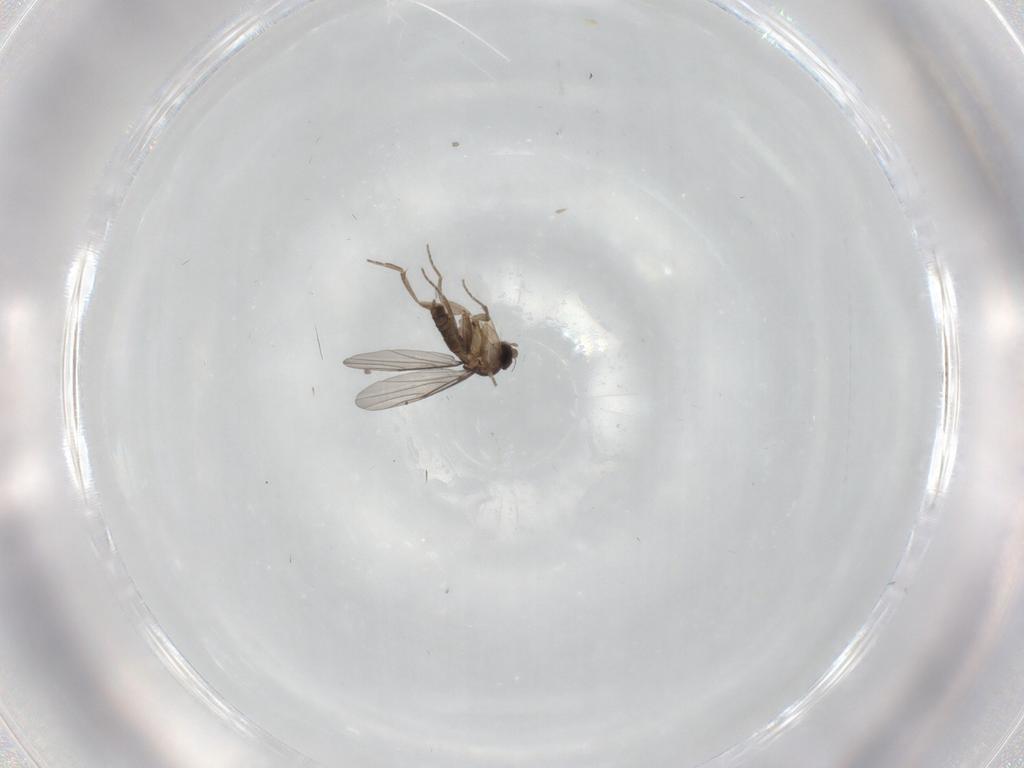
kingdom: Animalia
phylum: Arthropoda
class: Insecta
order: Diptera
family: Phoridae
